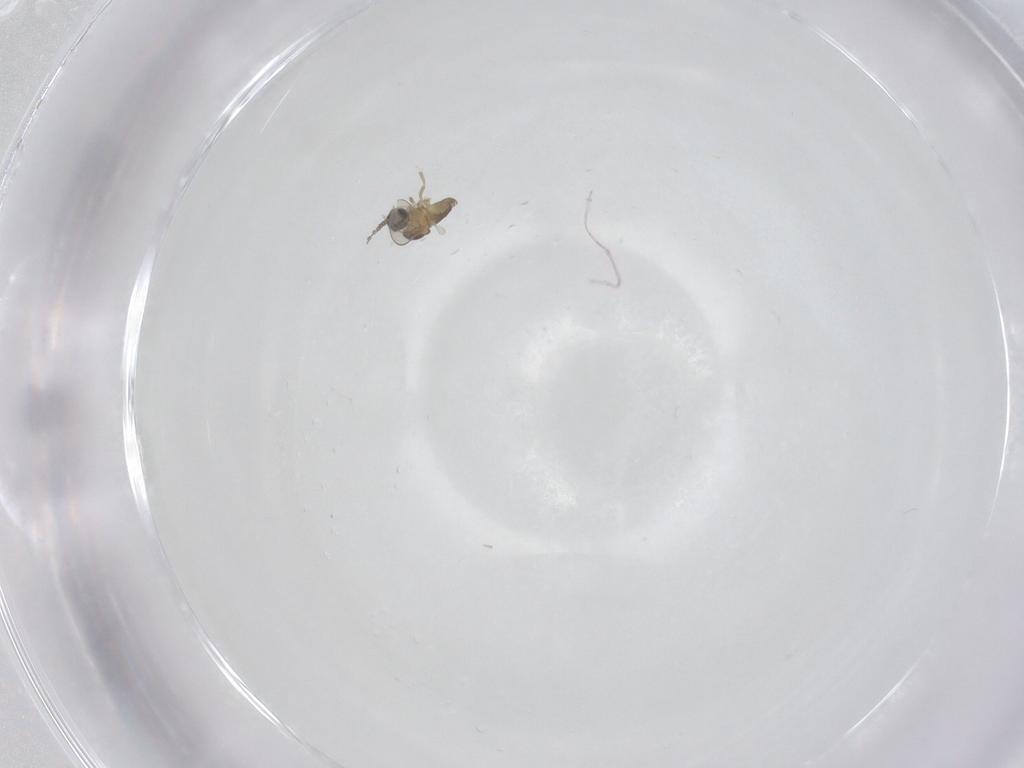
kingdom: Animalia
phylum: Arthropoda
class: Insecta
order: Diptera
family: Cecidomyiidae
